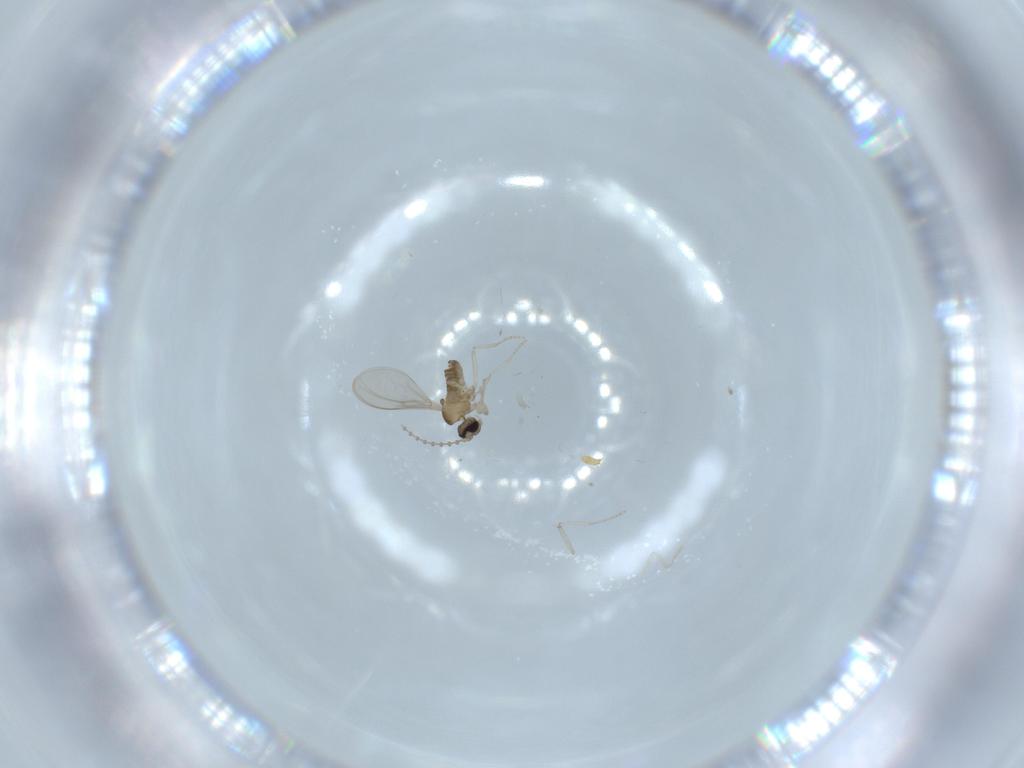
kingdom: Animalia
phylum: Arthropoda
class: Insecta
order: Diptera
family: Cecidomyiidae
